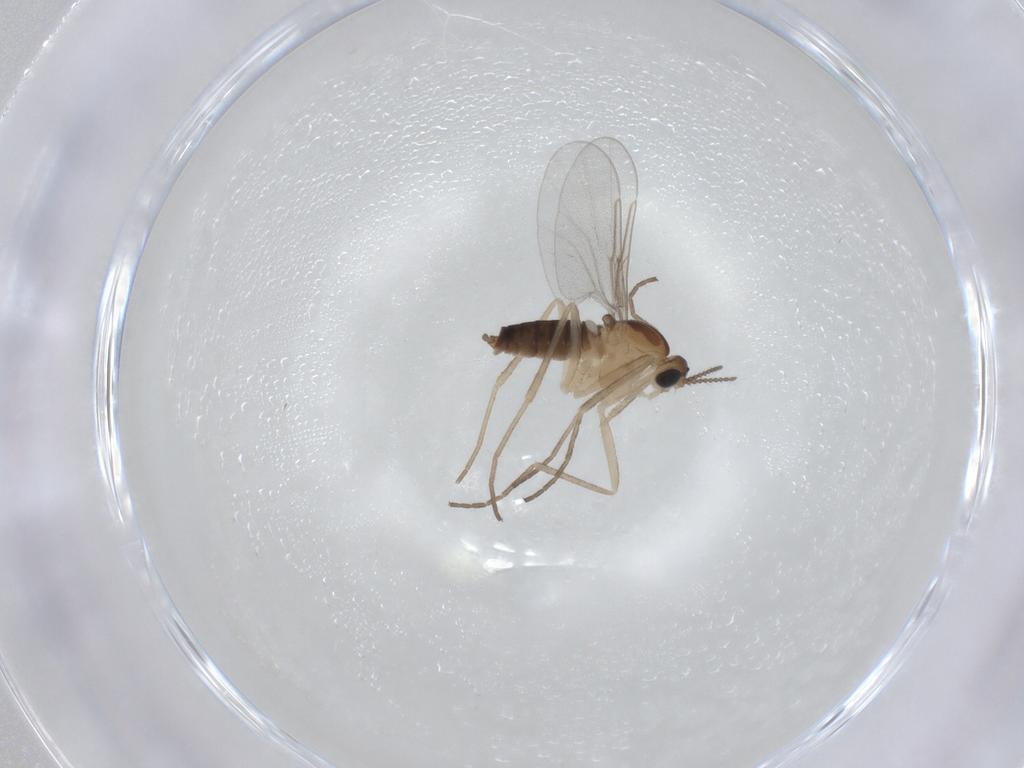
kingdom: Animalia
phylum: Arthropoda
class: Insecta
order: Diptera
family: Cecidomyiidae
